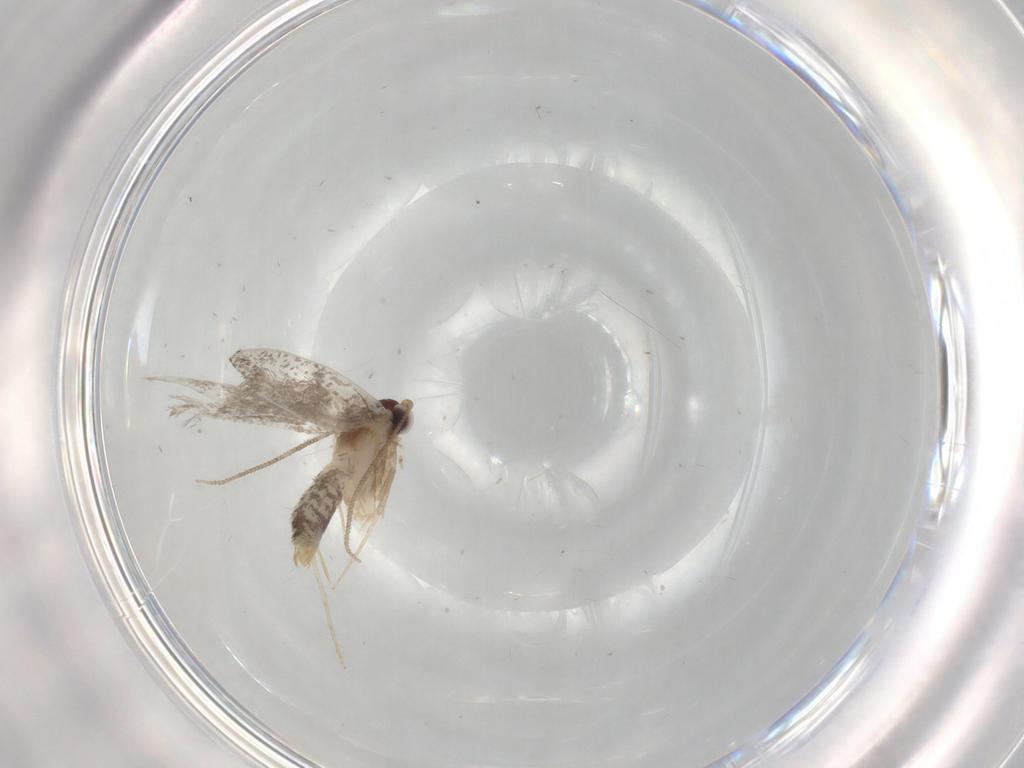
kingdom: Animalia
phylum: Arthropoda
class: Insecta
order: Lepidoptera
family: Tineidae
